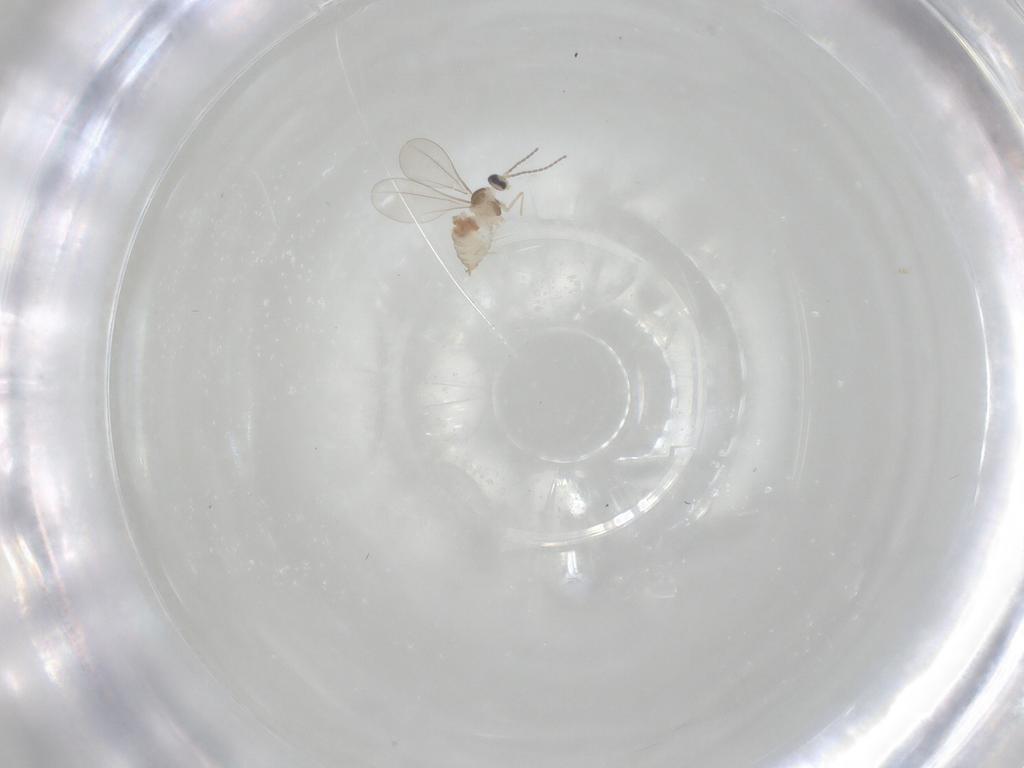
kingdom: Animalia
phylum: Arthropoda
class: Insecta
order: Diptera
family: Cecidomyiidae
